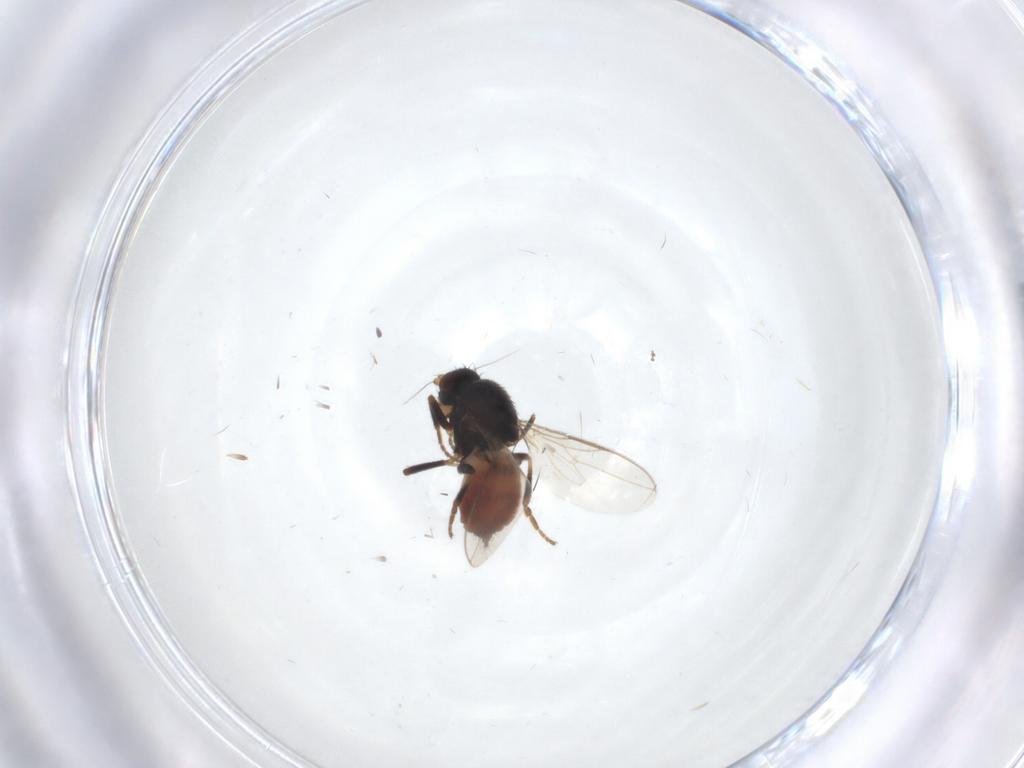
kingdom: Animalia
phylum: Arthropoda
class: Insecta
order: Diptera
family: Sphaeroceridae
